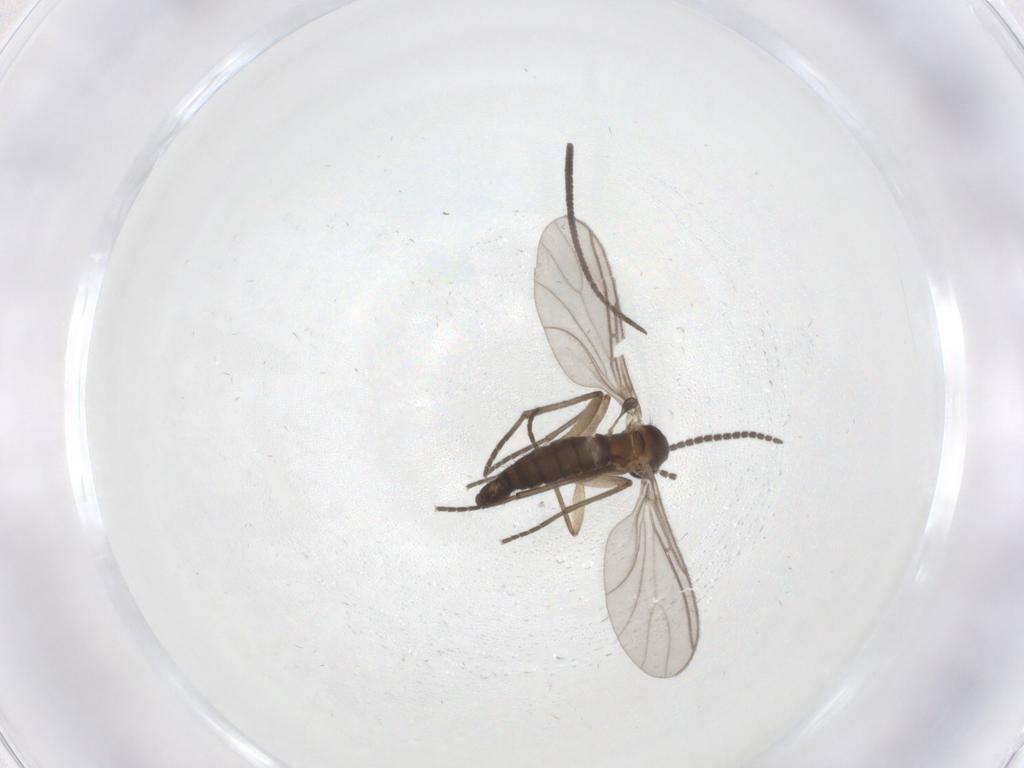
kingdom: Animalia
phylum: Arthropoda
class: Insecta
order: Diptera
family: Sciaridae
